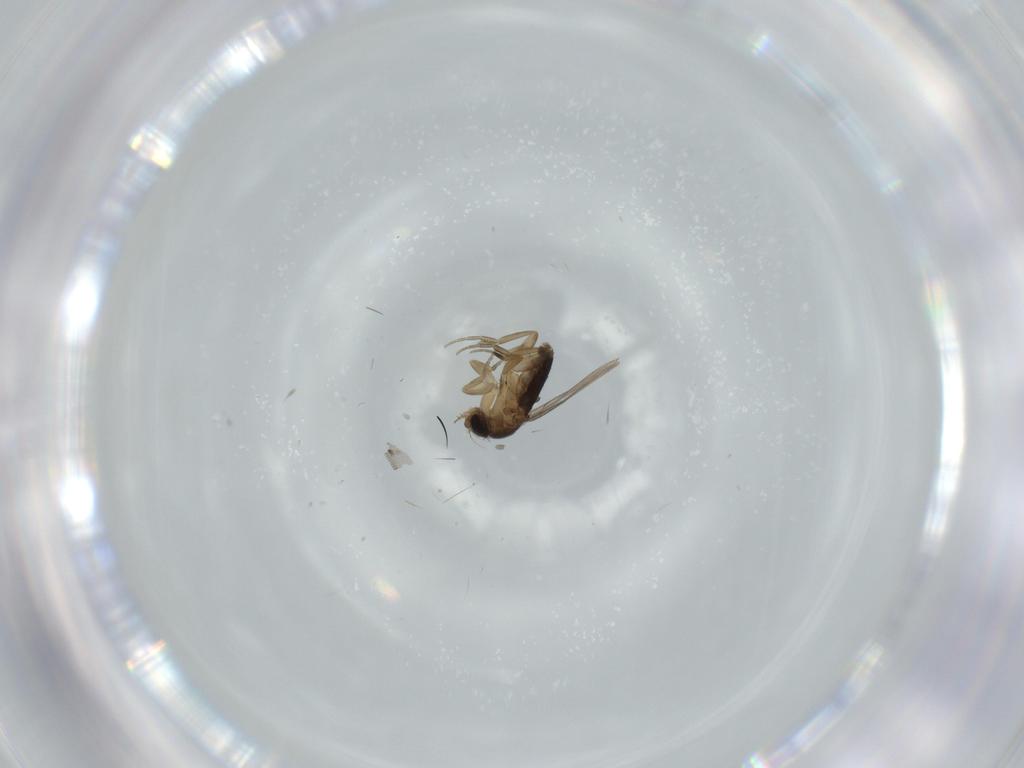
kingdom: Animalia
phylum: Arthropoda
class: Insecta
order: Diptera
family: Phoridae
